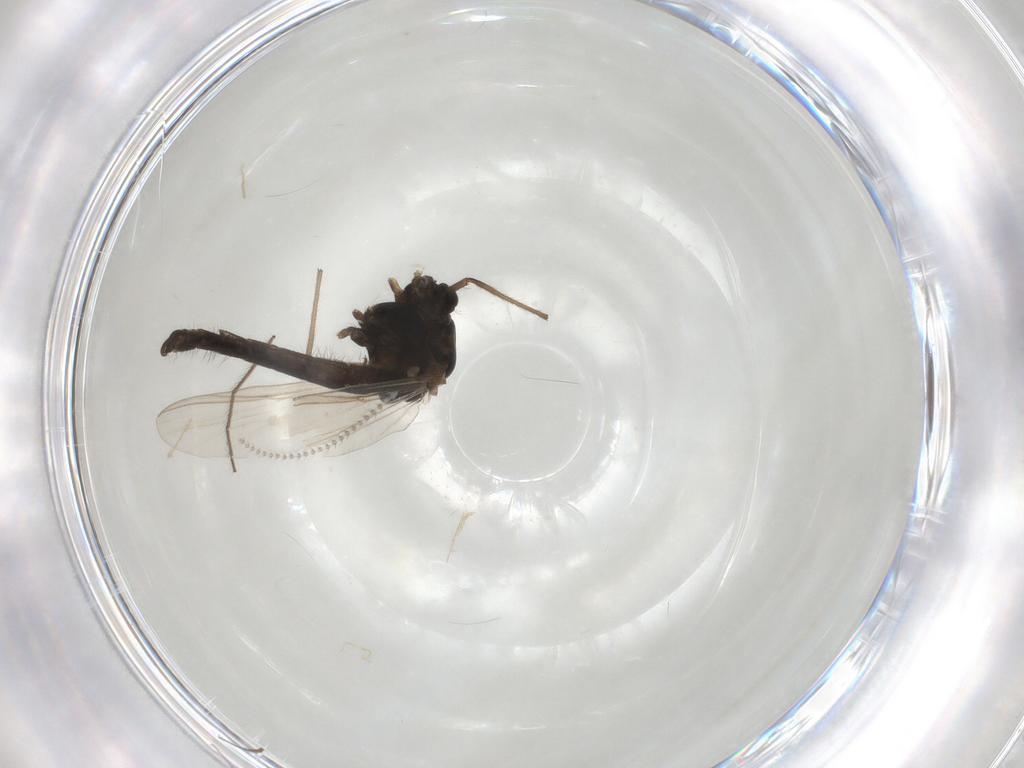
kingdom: Animalia
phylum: Arthropoda
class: Insecta
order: Diptera
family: Chironomidae
